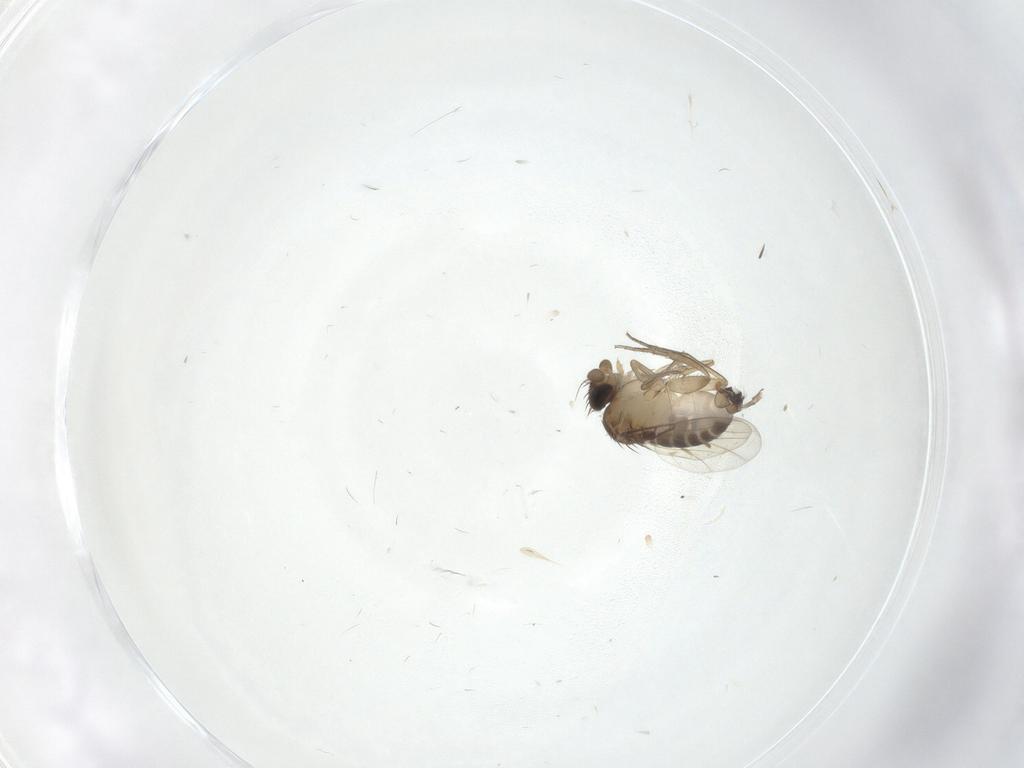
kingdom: Animalia
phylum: Arthropoda
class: Insecta
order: Diptera
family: Phoridae
